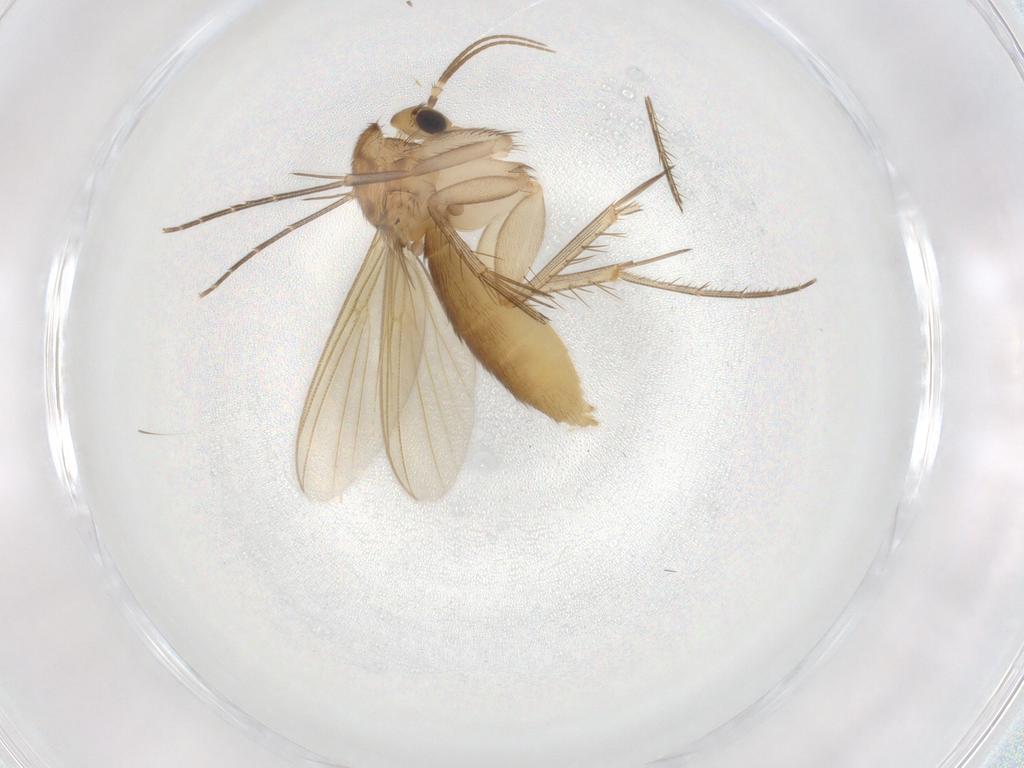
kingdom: Animalia
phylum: Arthropoda
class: Insecta
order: Diptera
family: Mycetophilidae
